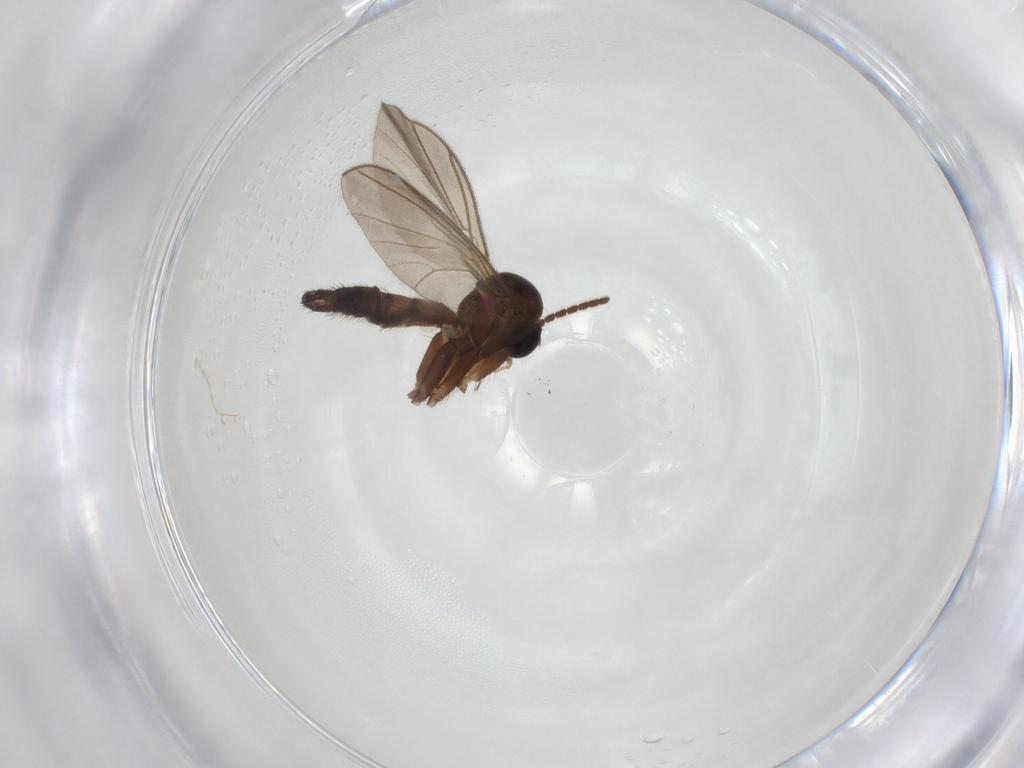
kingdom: Animalia
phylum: Arthropoda
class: Insecta
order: Diptera
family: Mycetophilidae
